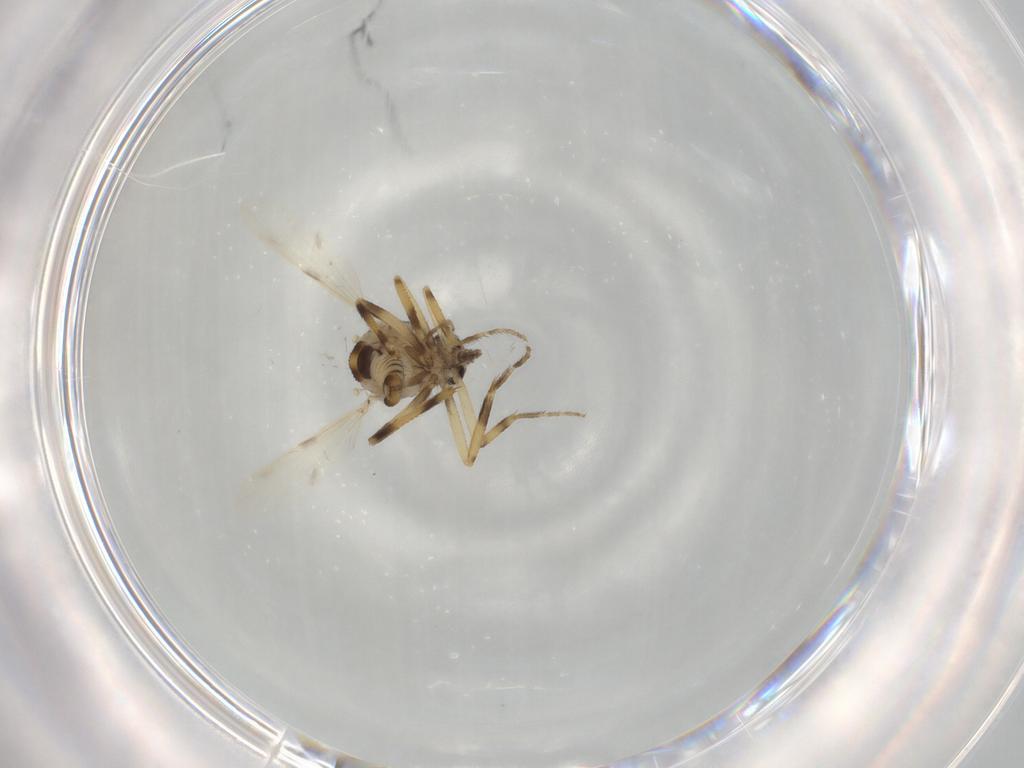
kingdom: Animalia
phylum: Arthropoda
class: Insecta
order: Diptera
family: Ceratopogonidae
